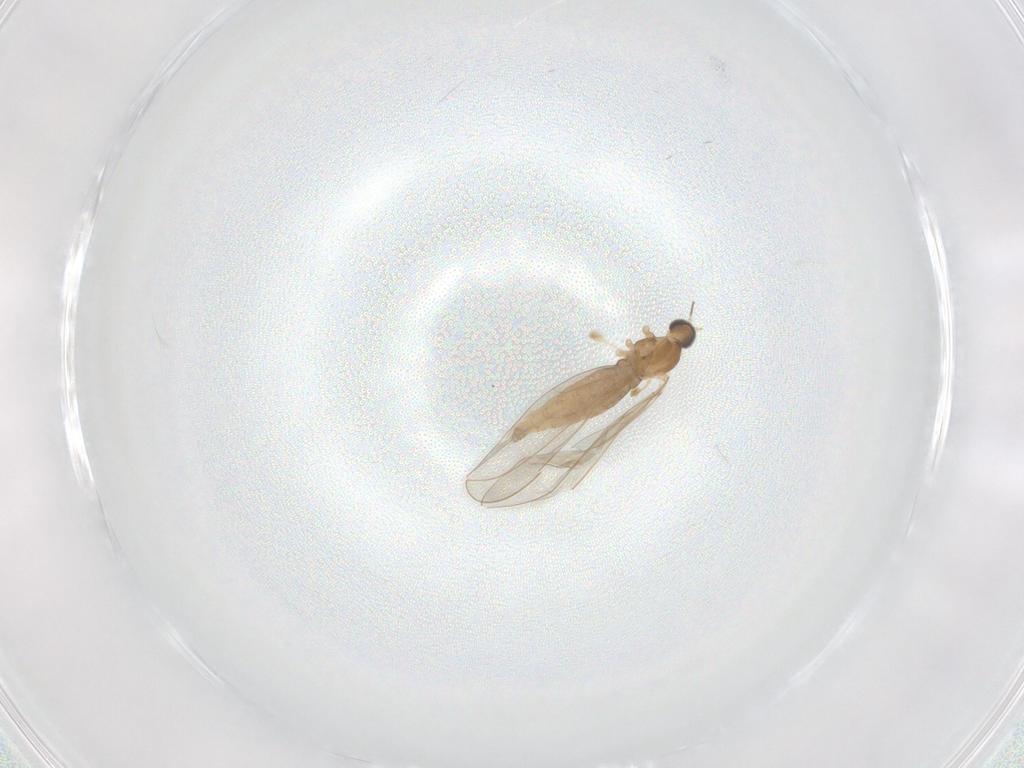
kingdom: Animalia
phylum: Arthropoda
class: Insecta
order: Diptera
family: Cecidomyiidae
